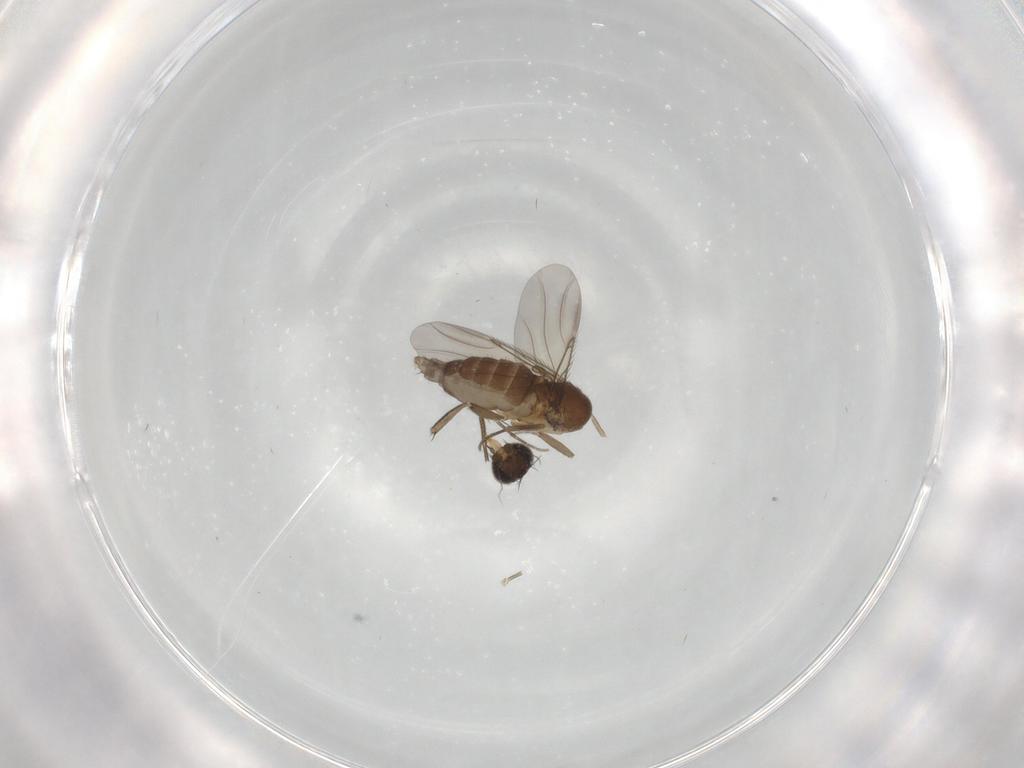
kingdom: Animalia
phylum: Arthropoda
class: Insecta
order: Diptera
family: Phoridae
